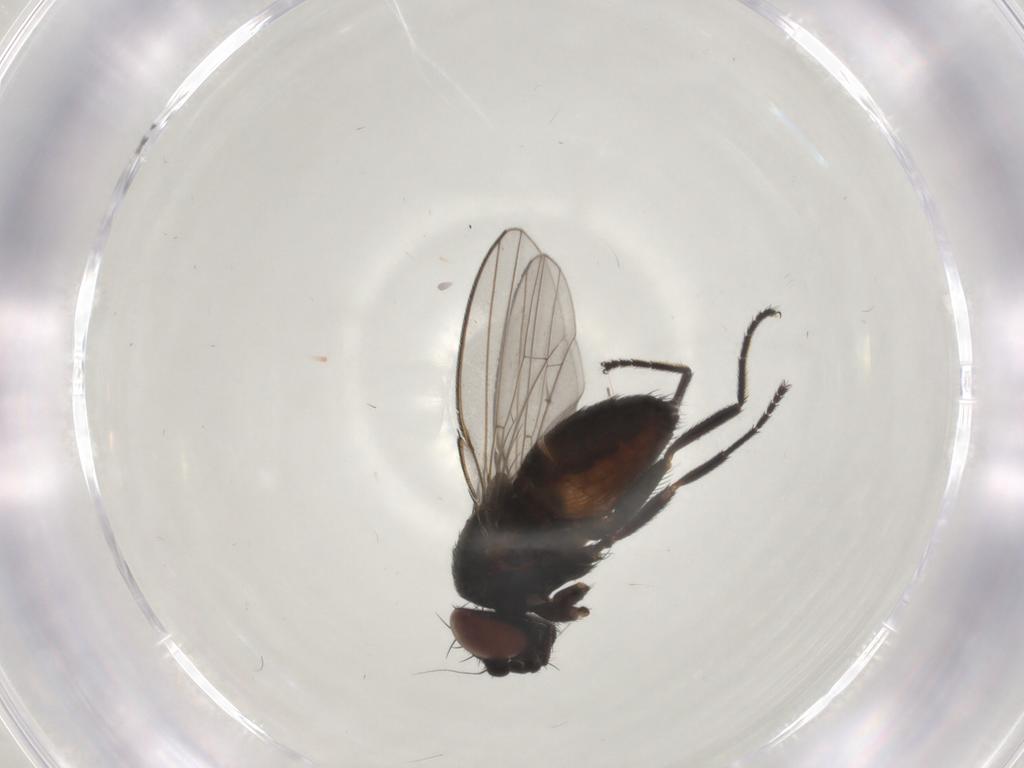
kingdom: Animalia
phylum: Arthropoda
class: Insecta
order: Diptera
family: Milichiidae
